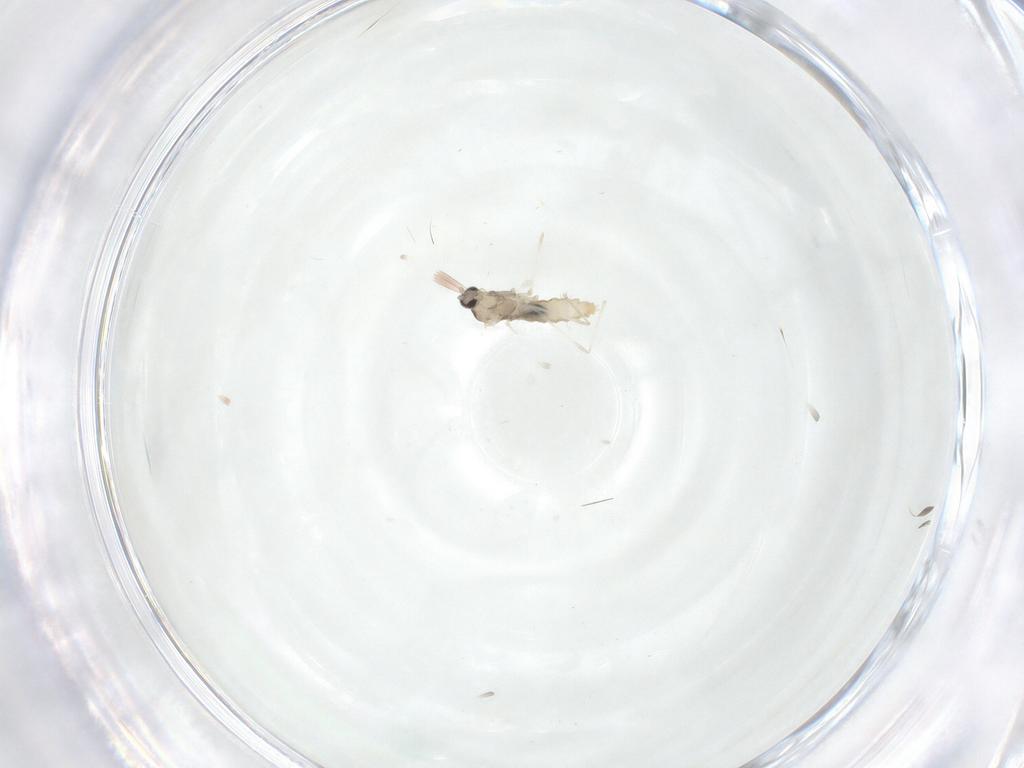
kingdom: Animalia
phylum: Arthropoda
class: Insecta
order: Diptera
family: Cecidomyiidae
